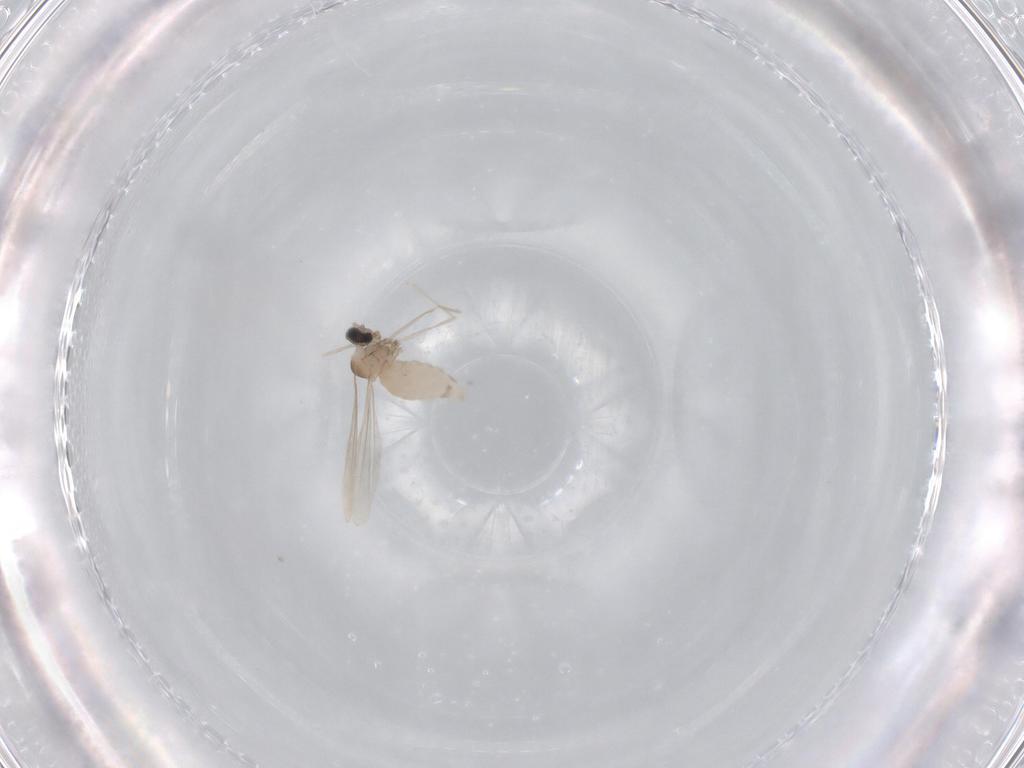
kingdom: Animalia
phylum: Arthropoda
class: Insecta
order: Diptera
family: Cecidomyiidae
